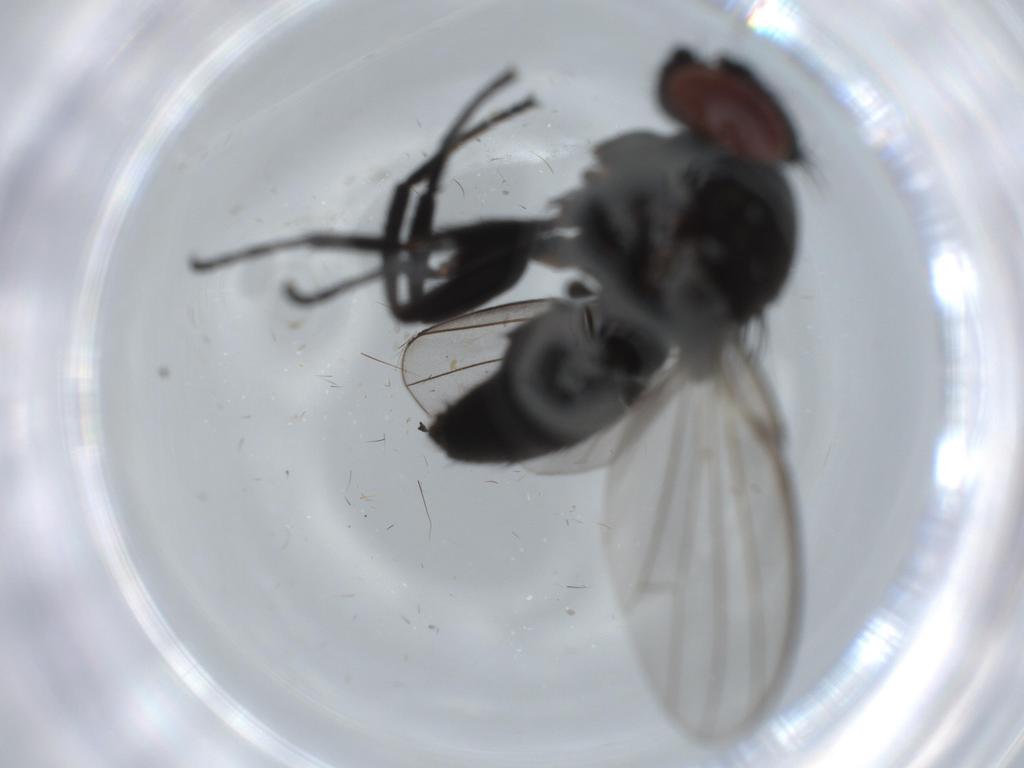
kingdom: Animalia
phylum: Arthropoda
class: Insecta
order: Diptera
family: Milichiidae
